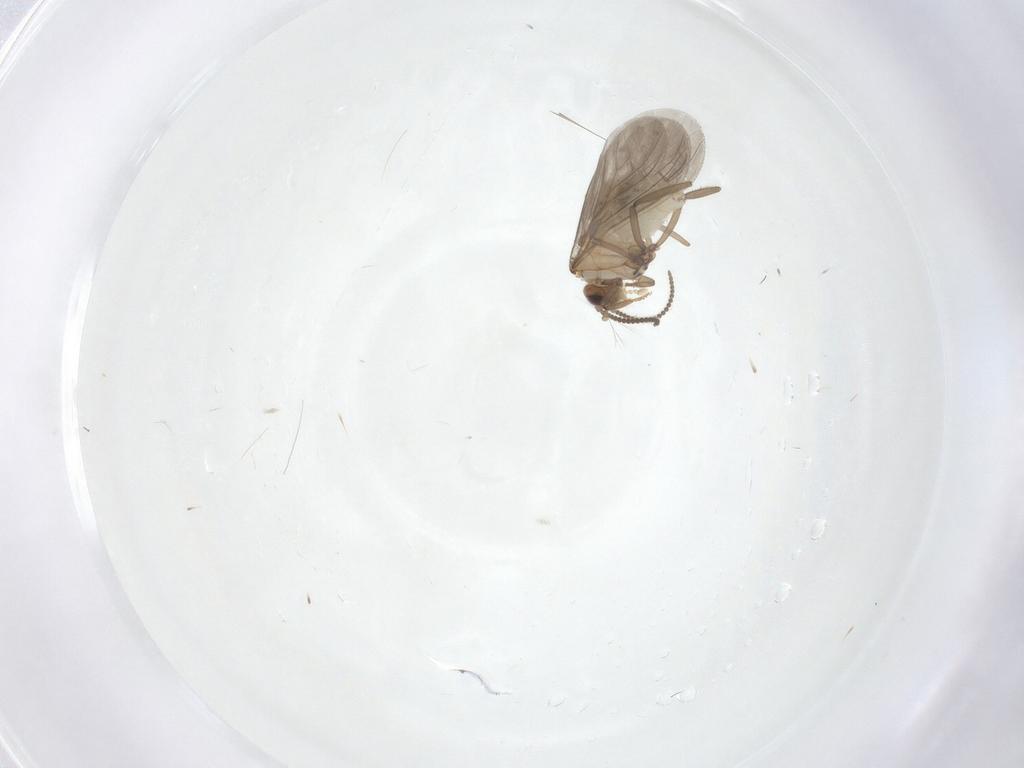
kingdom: Animalia
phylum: Arthropoda
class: Insecta
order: Neuroptera
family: Coniopterygidae
